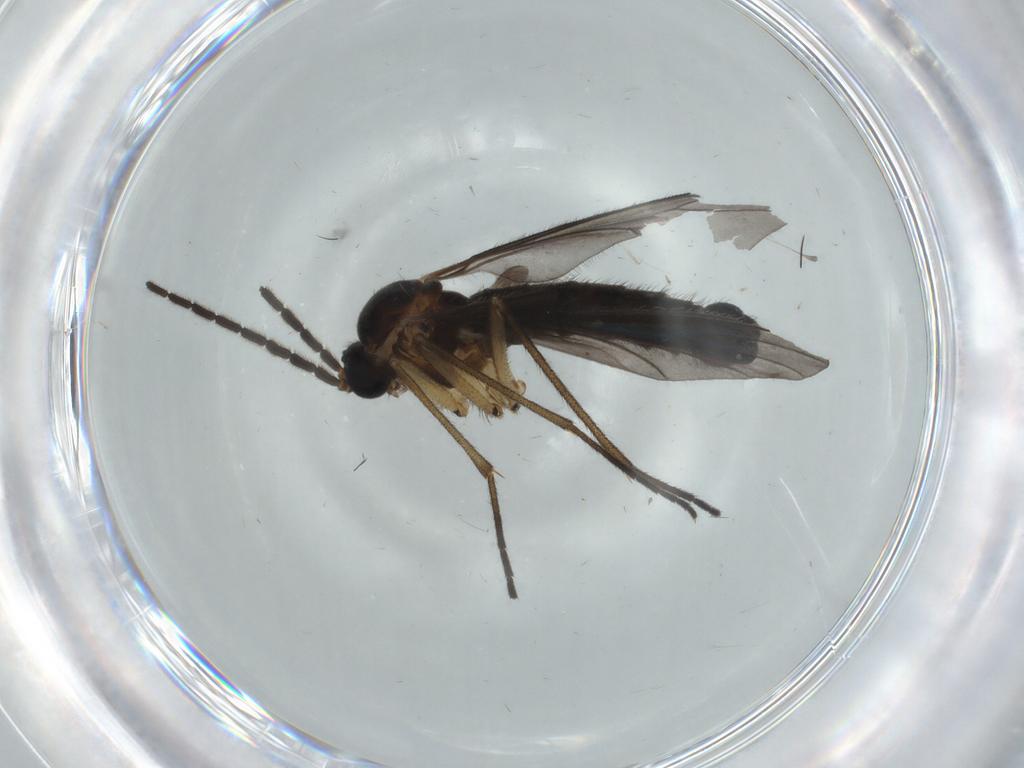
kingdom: Animalia
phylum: Arthropoda
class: Insecta
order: Diptera
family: Sciaridae
